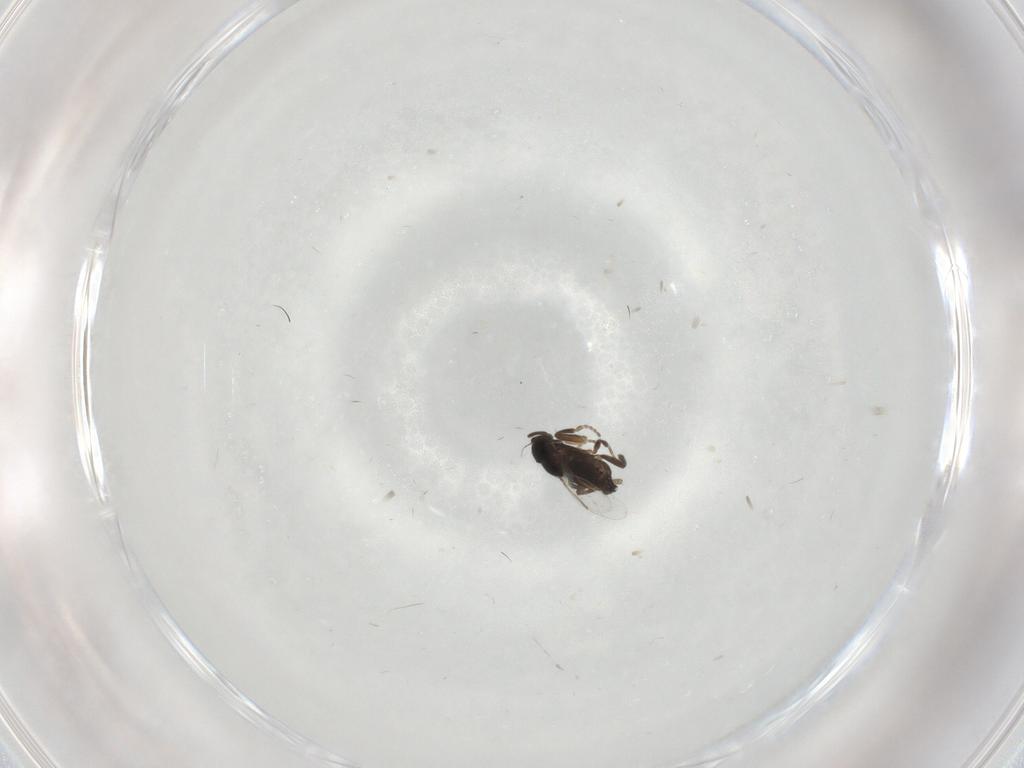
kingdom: Animalia
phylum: Arthropoda
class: Insecta
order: Diptera
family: Phoridae
